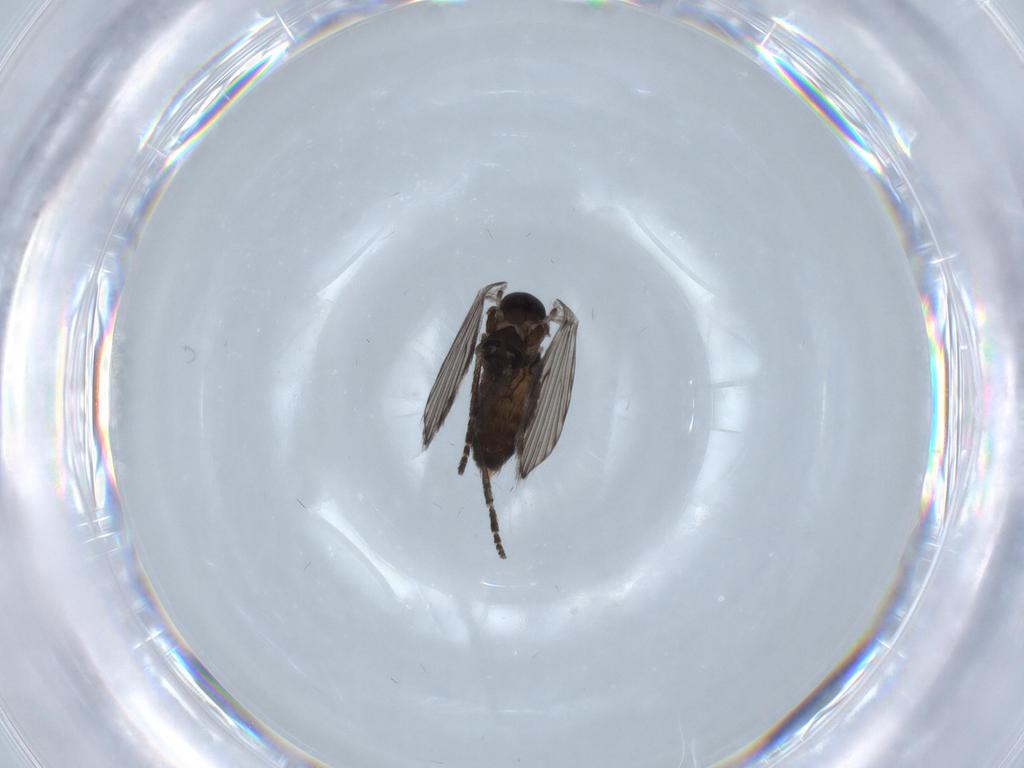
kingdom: Animalia
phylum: Arthropoda
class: Insecta
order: Diptera
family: Psychodidae
